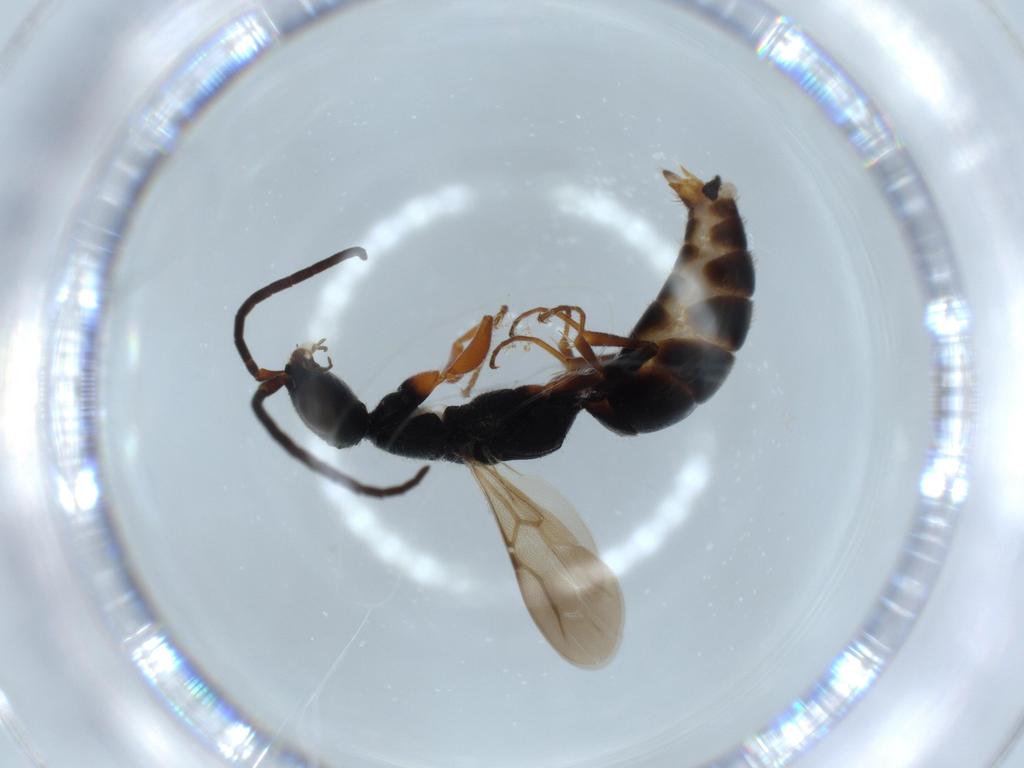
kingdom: Animalia
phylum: Arthropoda
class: Insecta
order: Hymenoptera
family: Bethylidae
